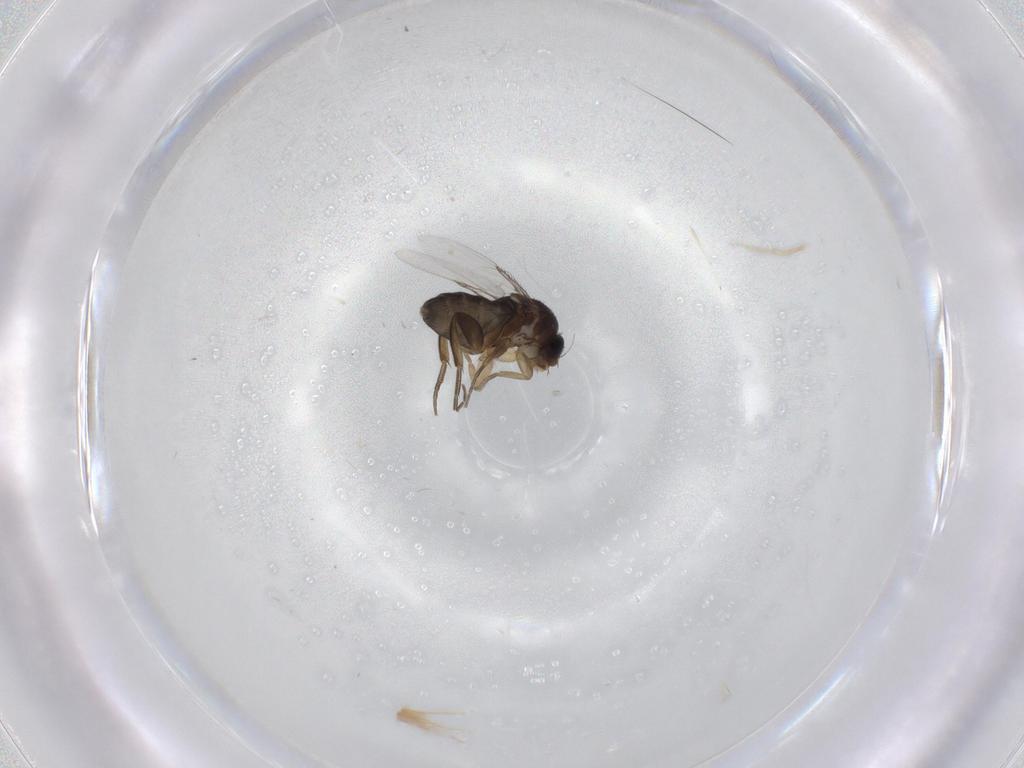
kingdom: Animalia
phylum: Arthropoda
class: Insecta
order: Diptera
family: Phoridae
